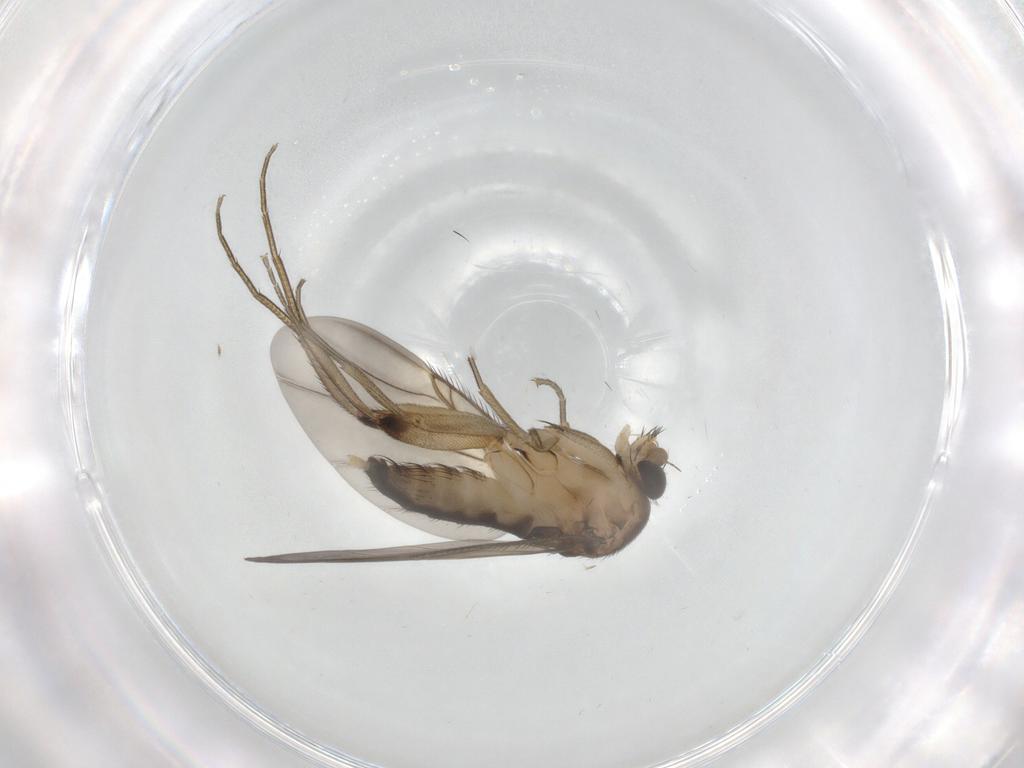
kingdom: Animalia
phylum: Arthropoda
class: Insecta
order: Diptera
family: Phoridae
